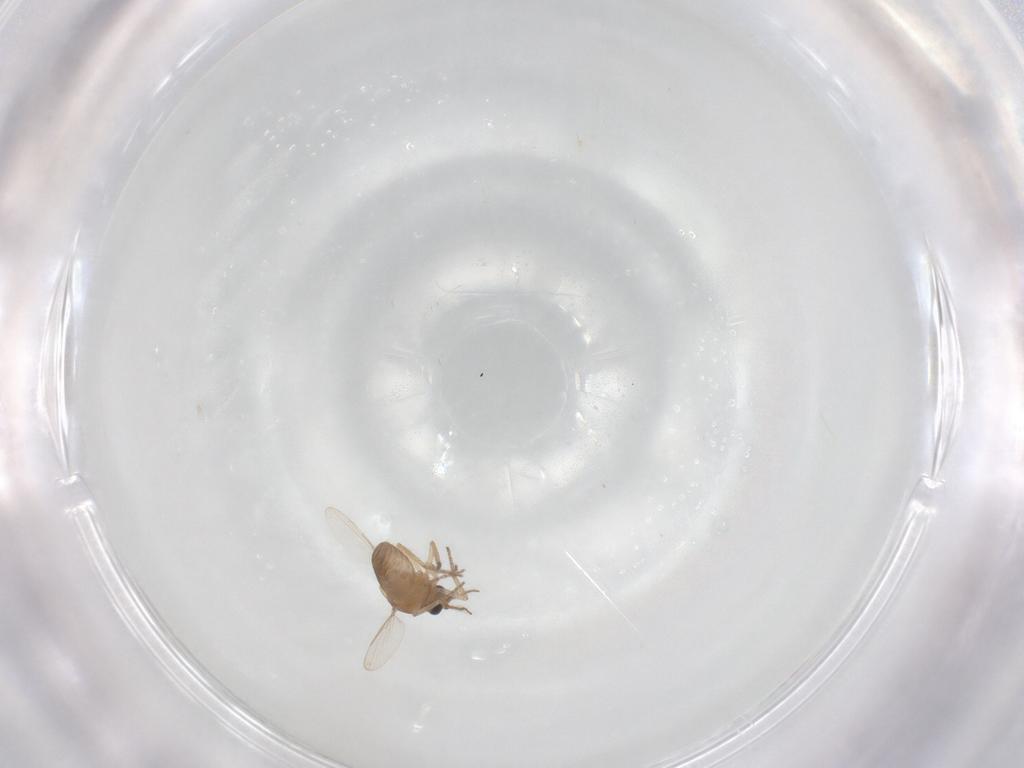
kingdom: Animalia
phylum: Arthropoda
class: Insecta
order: Diptera
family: Ceratopogonidae
